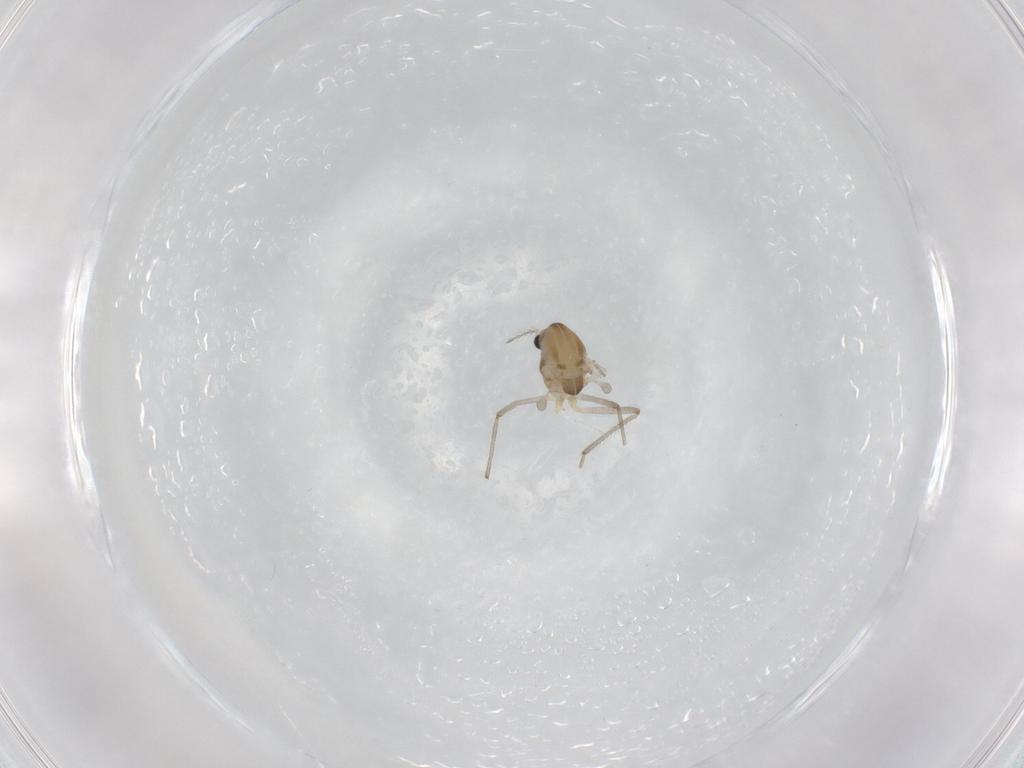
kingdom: Animalia
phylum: Arthropoda
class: Insecta
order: Diptera
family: Chironomidae
